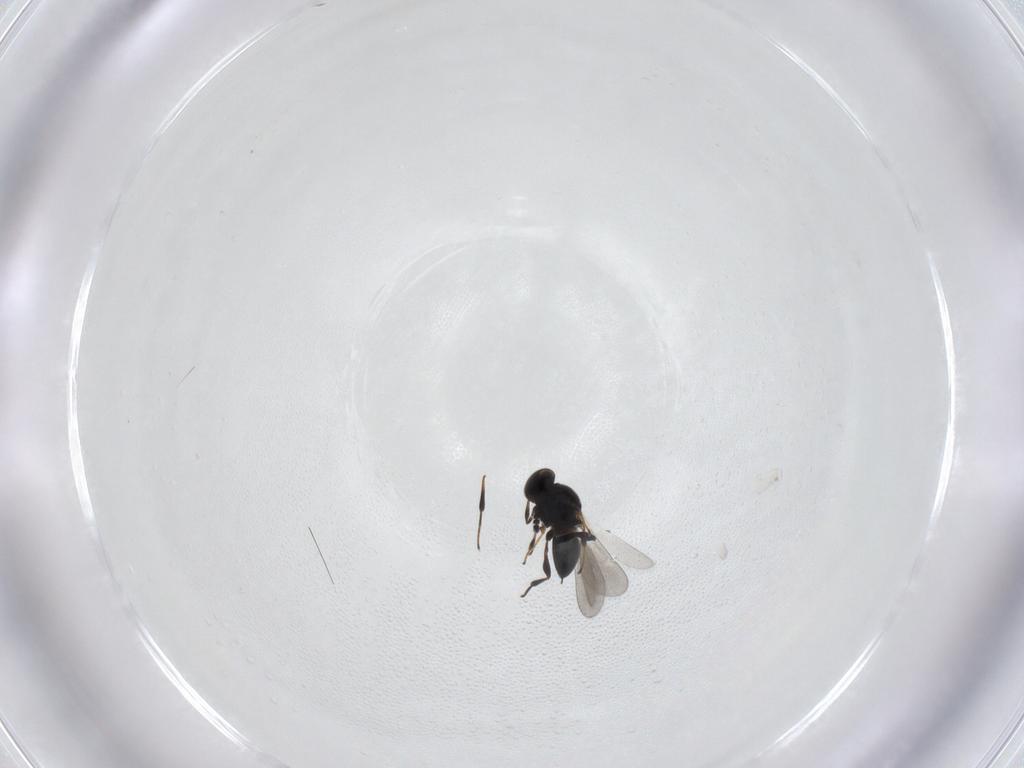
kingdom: Animalia
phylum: Arthropoda
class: Insecta
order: Hymenoptera
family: Platygastridae
